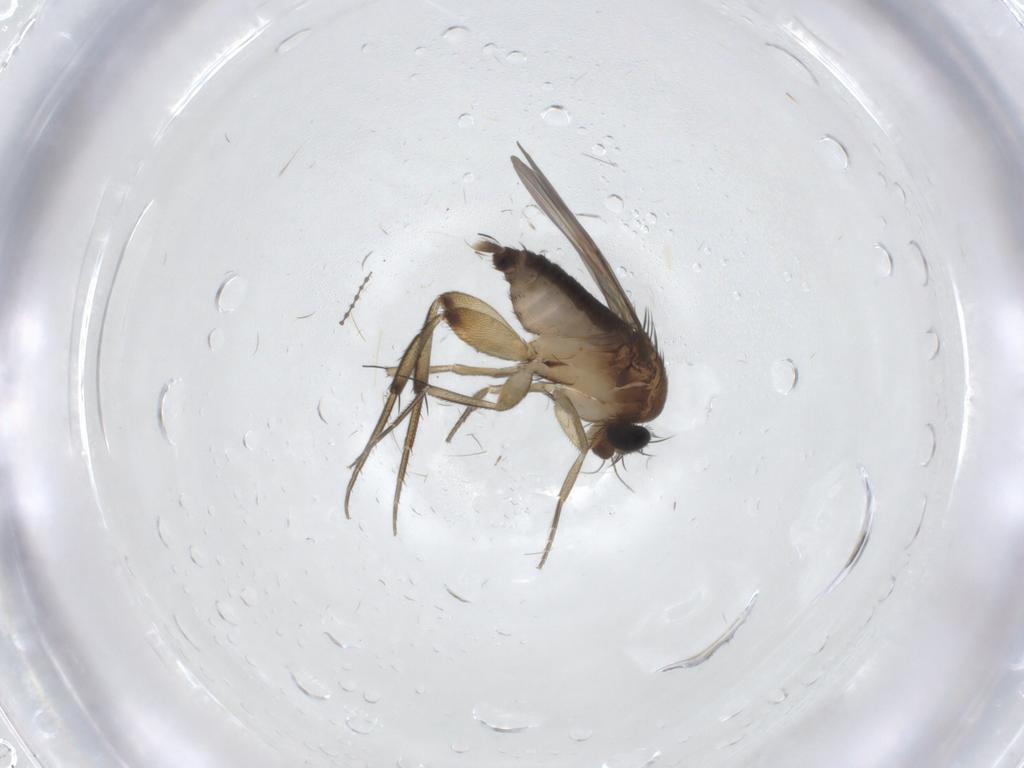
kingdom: Animalia
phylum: Arthropoda
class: Insecta
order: Diptera
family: Phoridae
